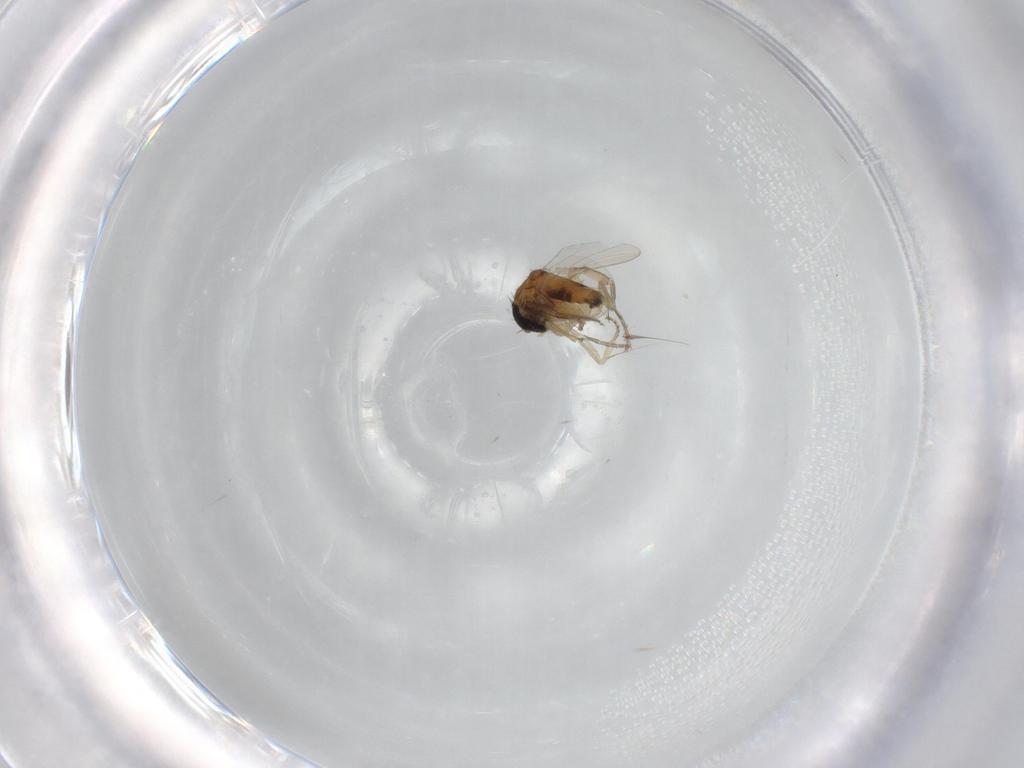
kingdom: Animalia
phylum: Arthropoda
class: Insecta
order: Diptera
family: Phoridae
